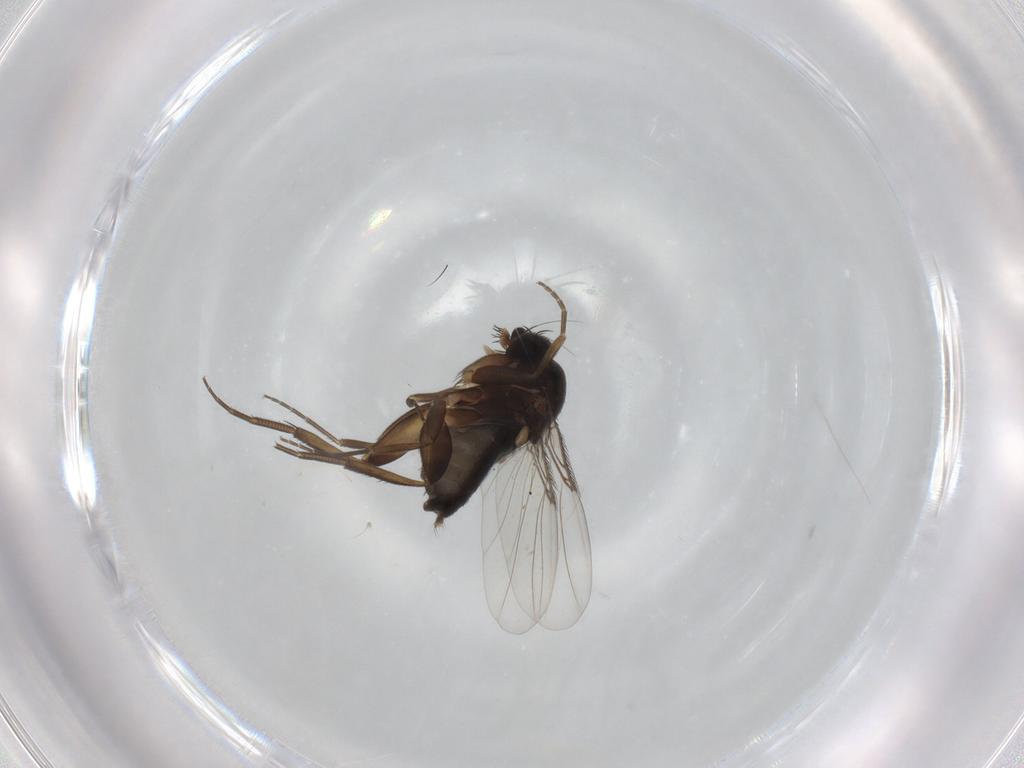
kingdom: Animalia
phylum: Arthropoda
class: Insecta
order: Diptera
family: Phoridae
